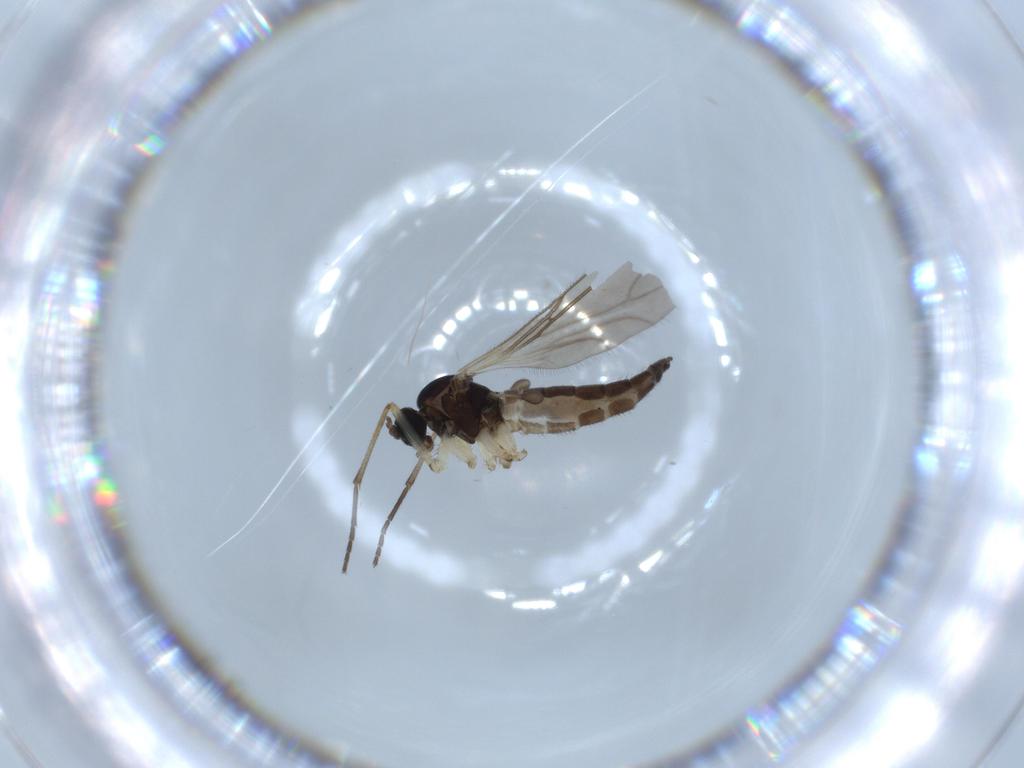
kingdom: Animalia
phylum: Arthropoda
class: Insecta
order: Diptera
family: Sciaridae
